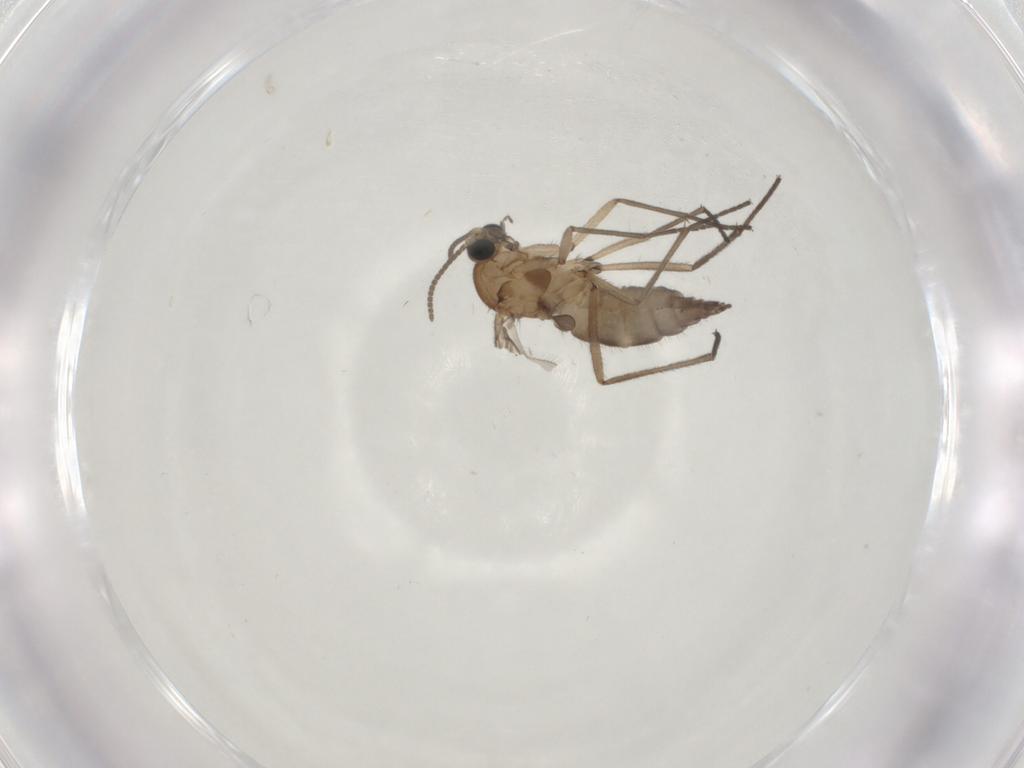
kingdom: Animalia
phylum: Arthropoda
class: Insecta
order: Diptera
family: Sciaridae
